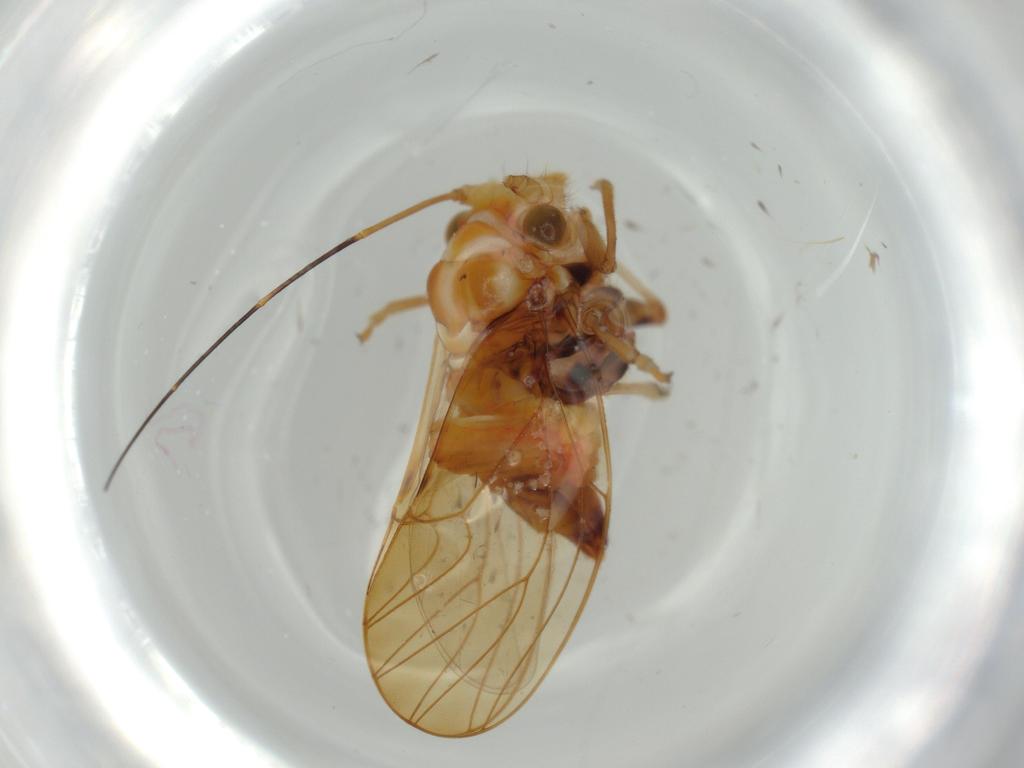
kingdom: Animalia
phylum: Arthropoda
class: Insecta
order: Hemiptera
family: Psyllidae
